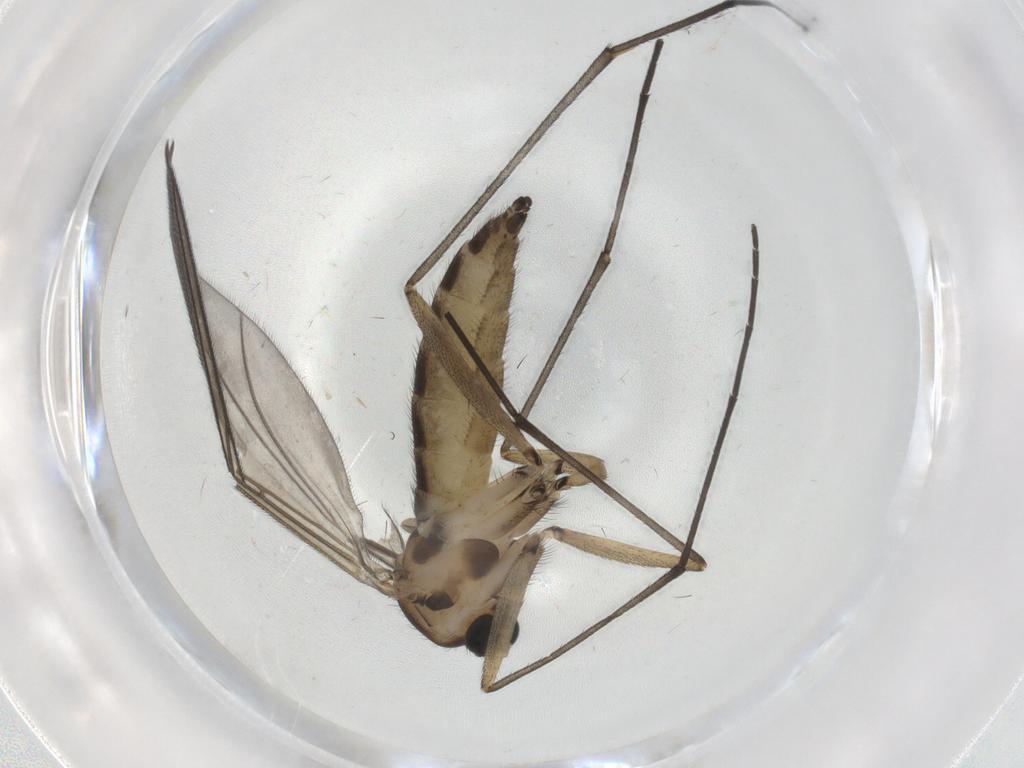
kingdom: Animalia
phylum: Arthropoda
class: Insecta
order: Diptera
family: Sciaridae
